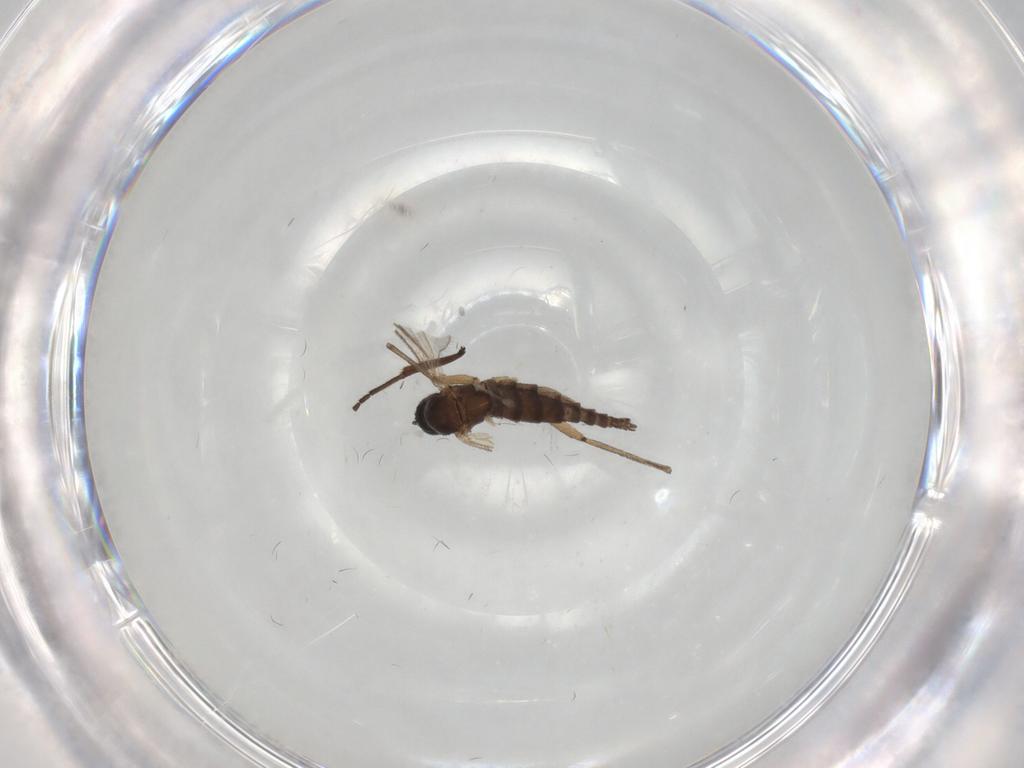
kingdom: Animalia
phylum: Arthropoda
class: Insecta
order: Diptera
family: Sciaridae
